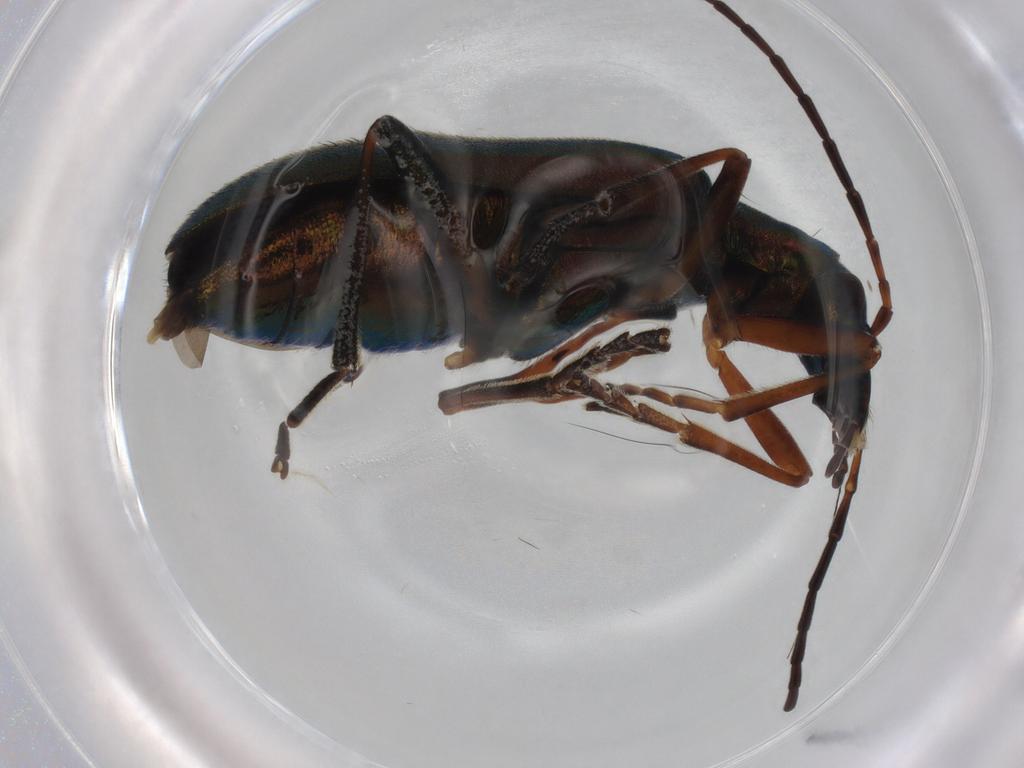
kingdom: Animalia
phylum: Arthropoda
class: Insecta
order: Coleoptera
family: Oedemeridae
